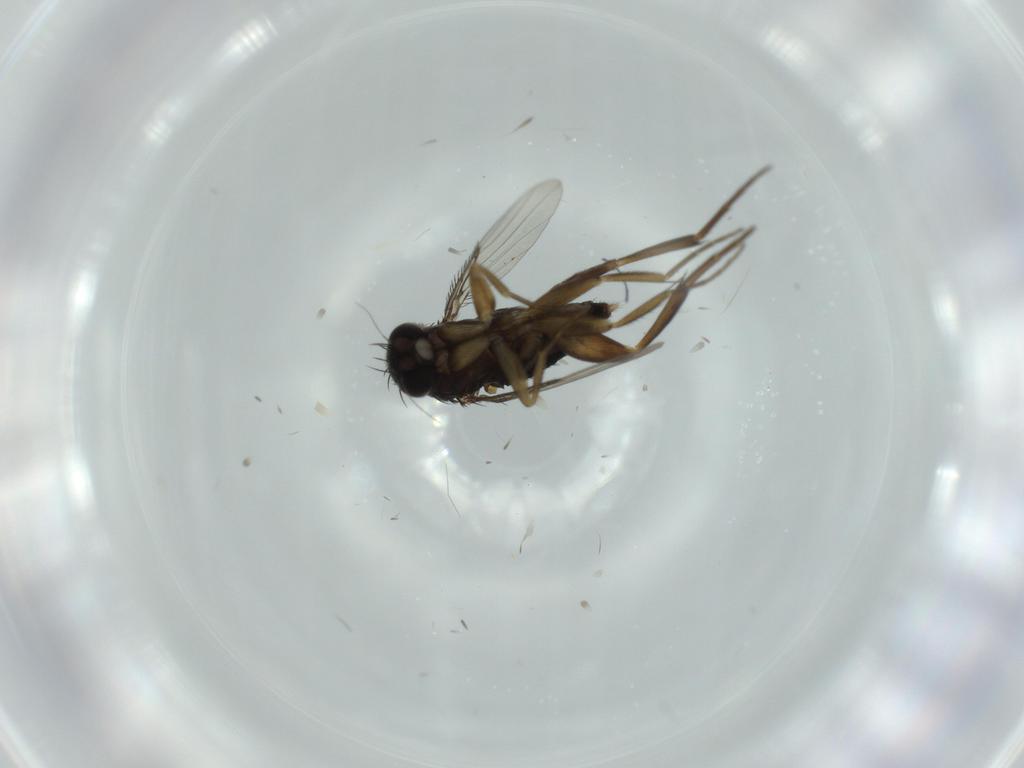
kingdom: Animalia
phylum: Arthropoda
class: Insecta
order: Diptera
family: Phoridae
